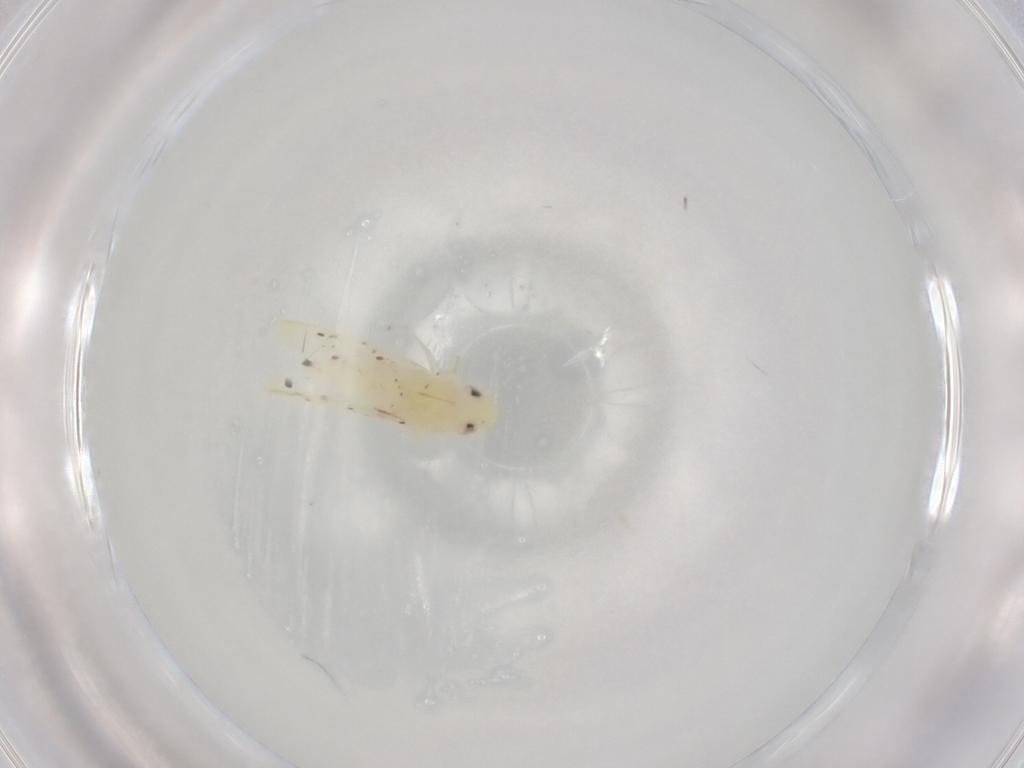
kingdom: Animalia
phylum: Arthropoda
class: Insecta
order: Hemiptera
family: Cicadellidae
